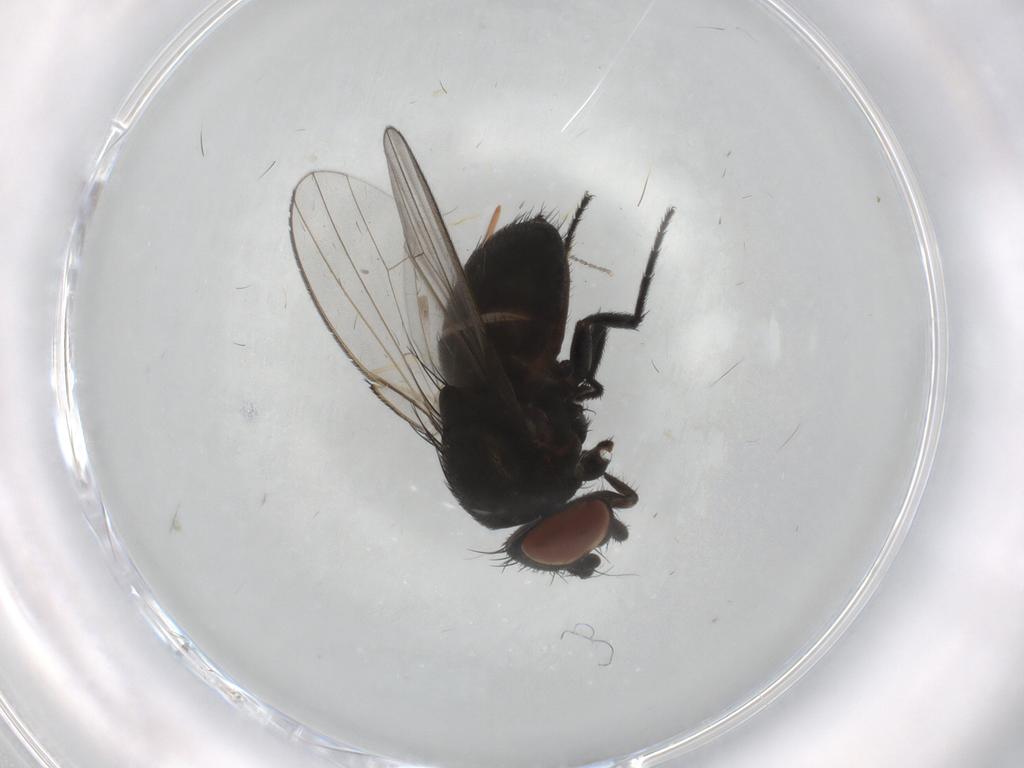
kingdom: Animalia
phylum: Arthropoda
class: Insecta
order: Diptera
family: Milichiidae
